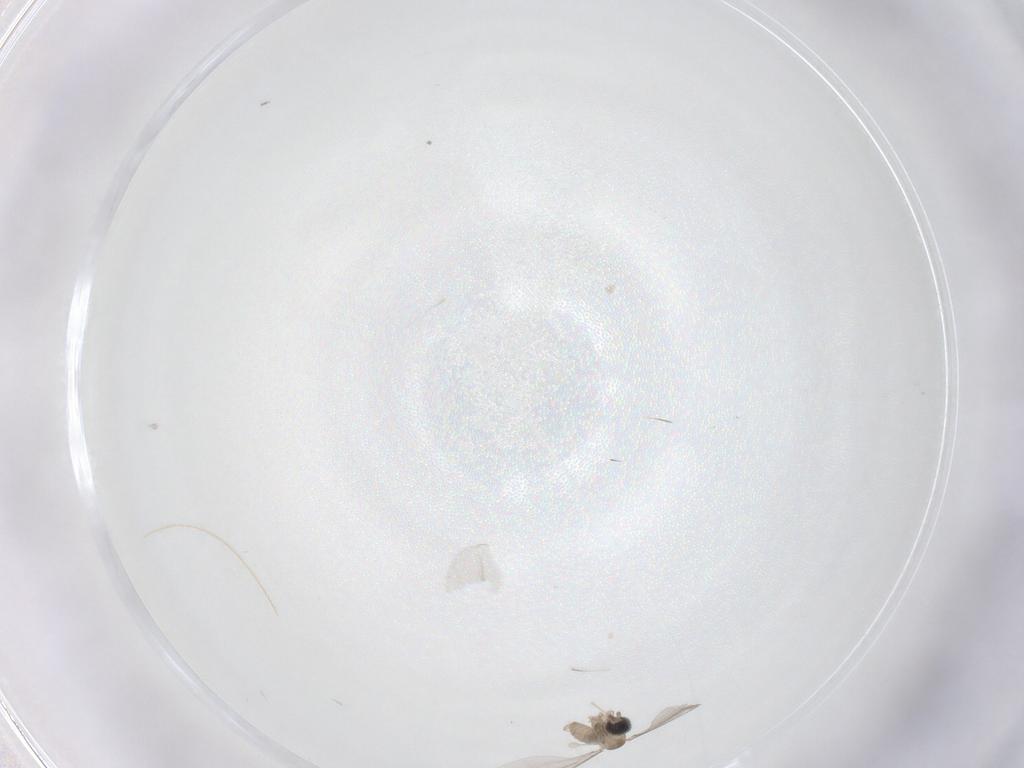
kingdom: Animalia
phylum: Arthropoda
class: Insecta
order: Diptera
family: Cecidomyiidae
